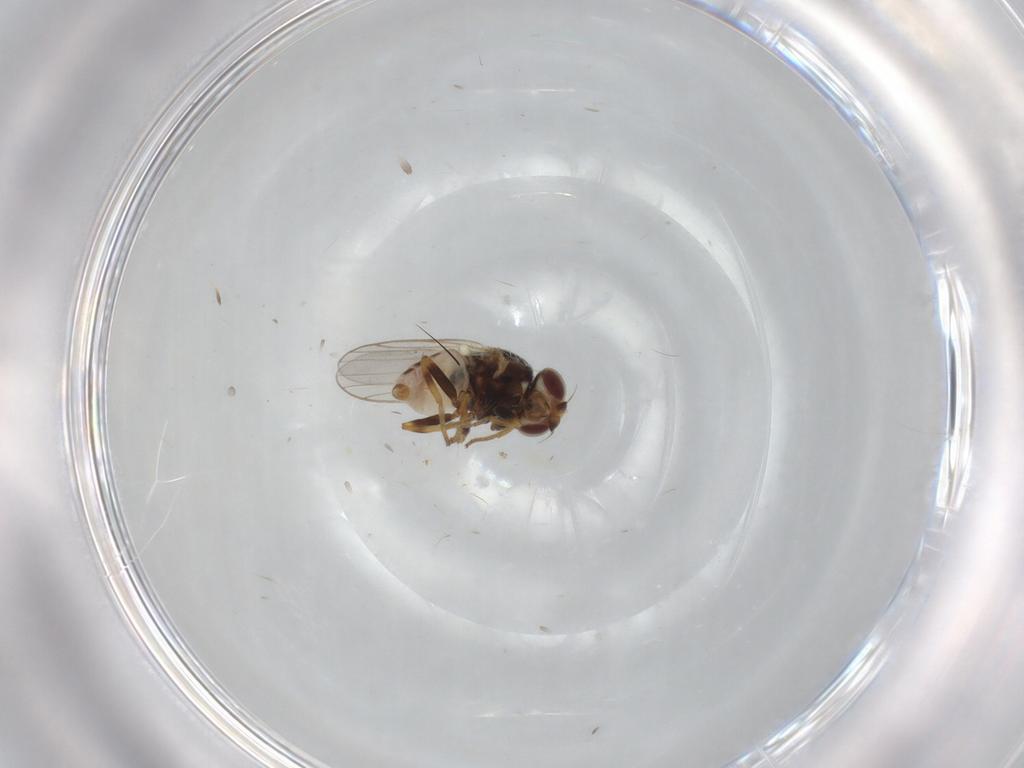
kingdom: Animalia
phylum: Arthropoda
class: Insecta
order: Diptera
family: Chloropidae
